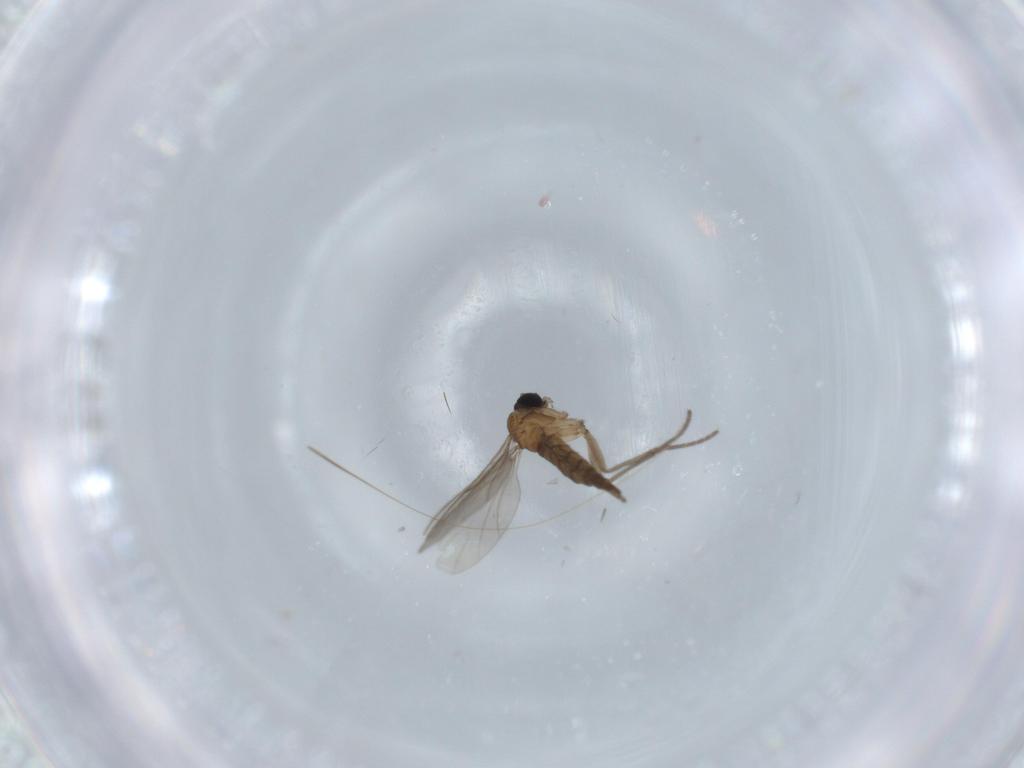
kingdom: Animalia
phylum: Arthropoda
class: Insecta
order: Diptera
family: Sciaridae
